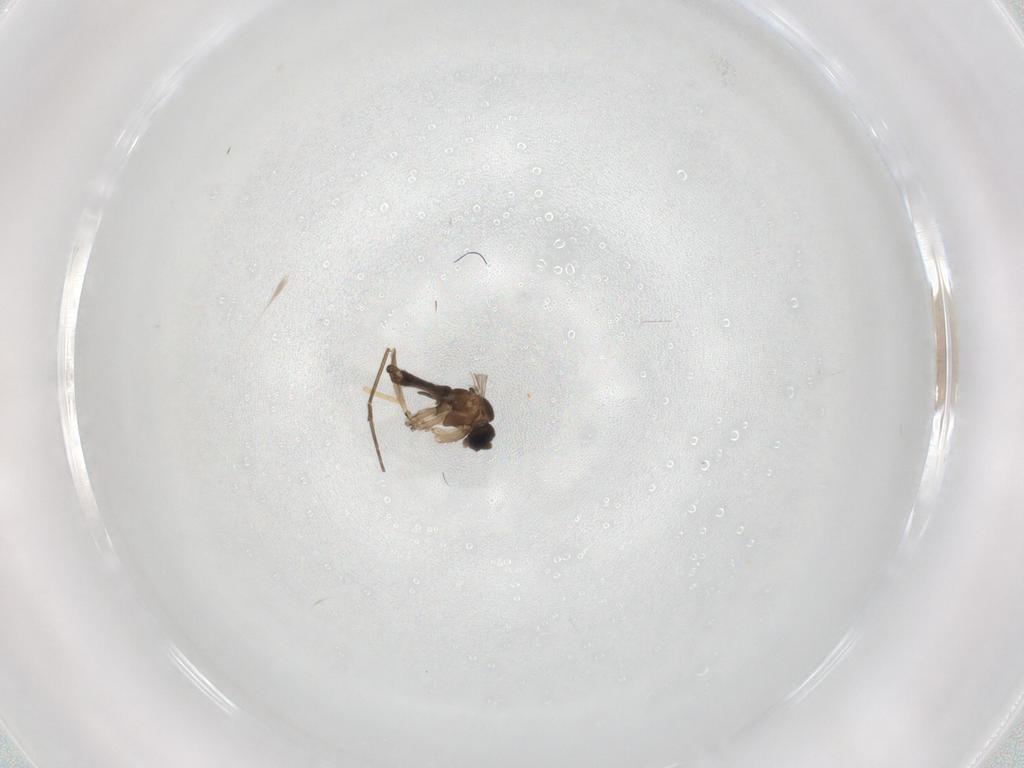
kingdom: Animalia
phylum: Arthropoda
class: Insecta
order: Diptera
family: Sciaridae
